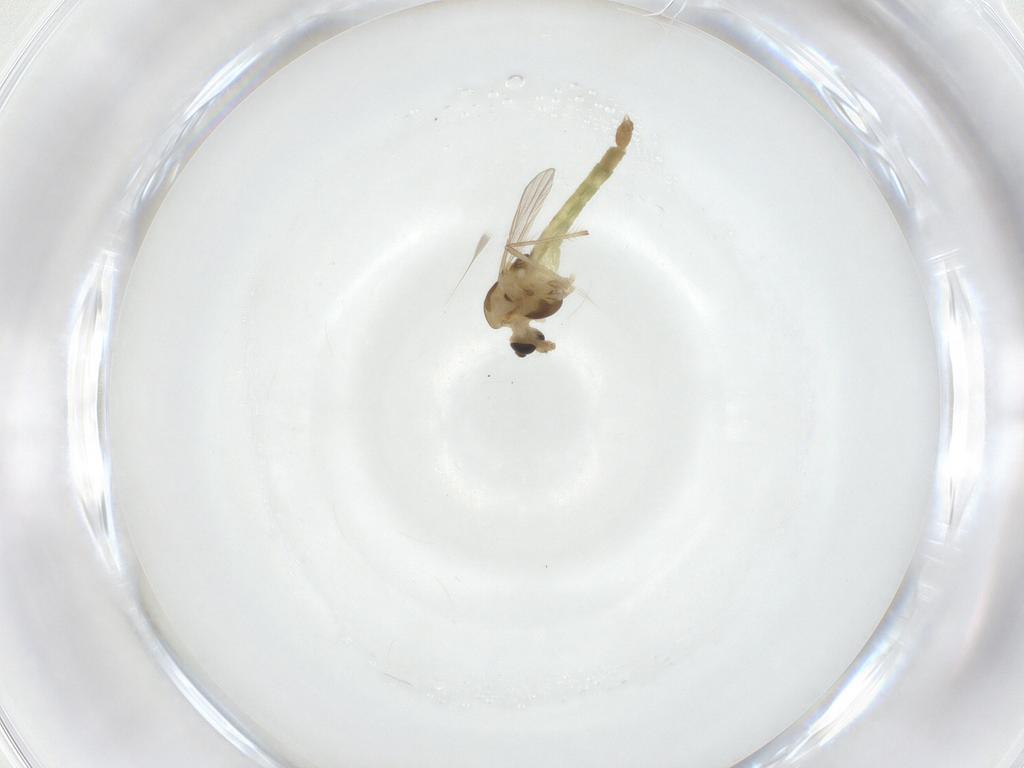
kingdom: Animalia
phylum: Arthropoda
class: Insecta
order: Diptera
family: Chironomidae
